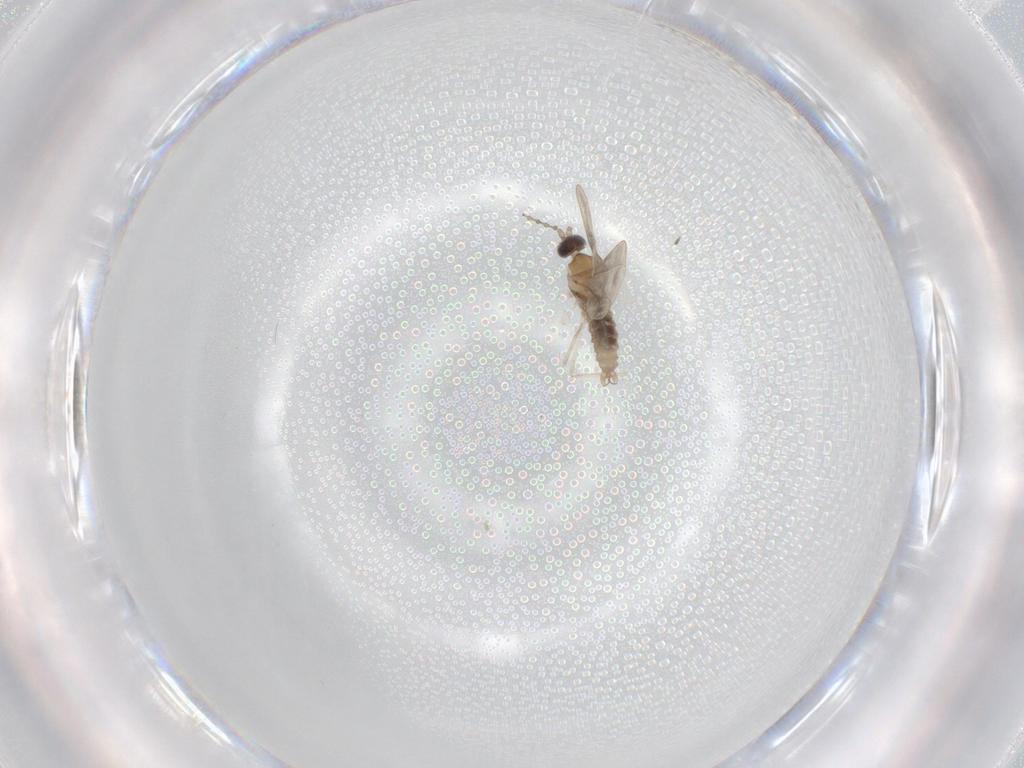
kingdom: Animalia
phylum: Arthropoda
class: Insecta
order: Diptera
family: Cecidomyiidae
